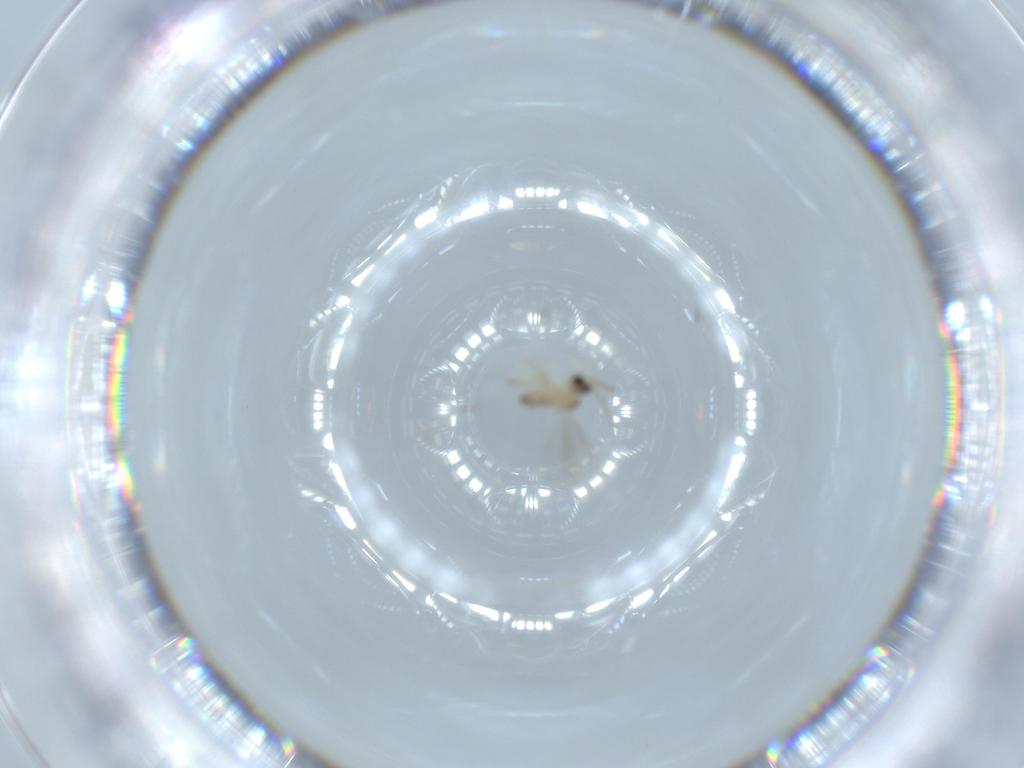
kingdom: Animalia
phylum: Arthropoda
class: Insecta
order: Diptera
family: Cecidomyiidae
